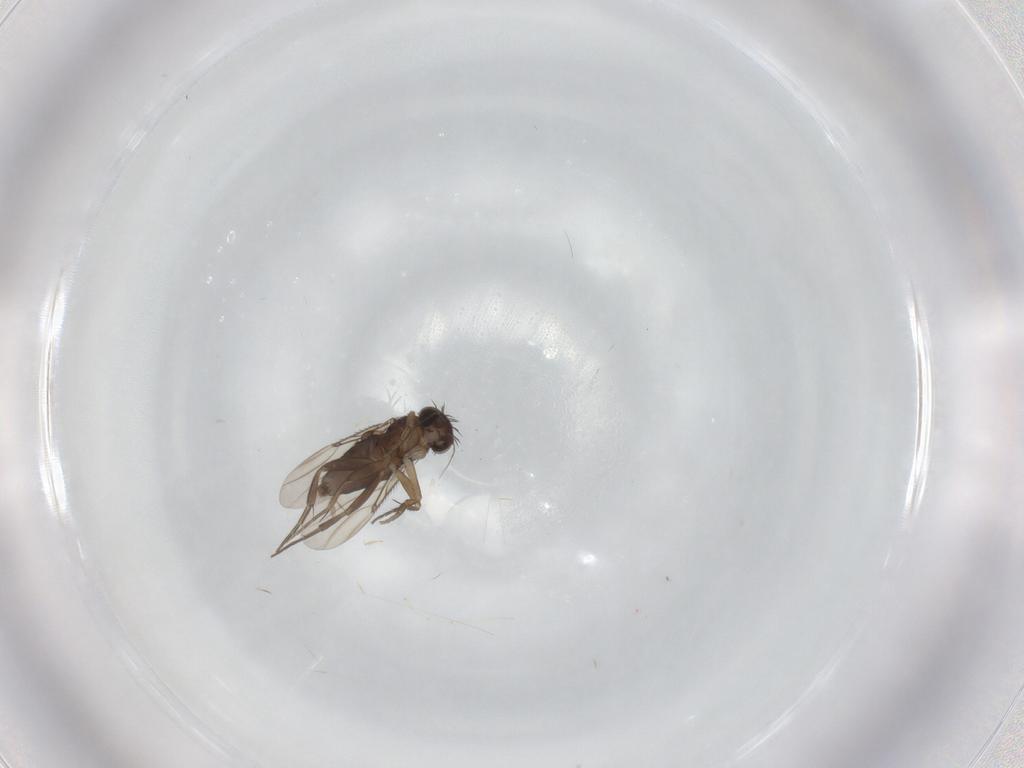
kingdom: Animalia
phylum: Arthropoda
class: Insecta
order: Diptera
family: Phoridae
